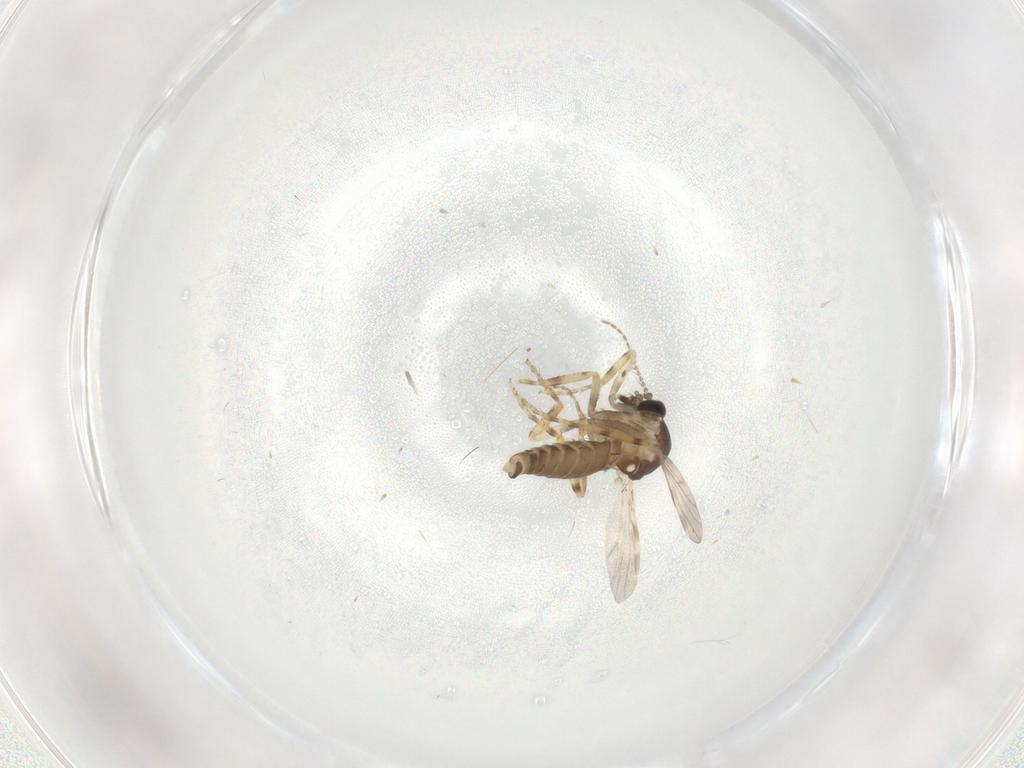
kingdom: Animalia
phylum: Arthropoda
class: Insecta
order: Diptera
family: Ceratopogonidae
